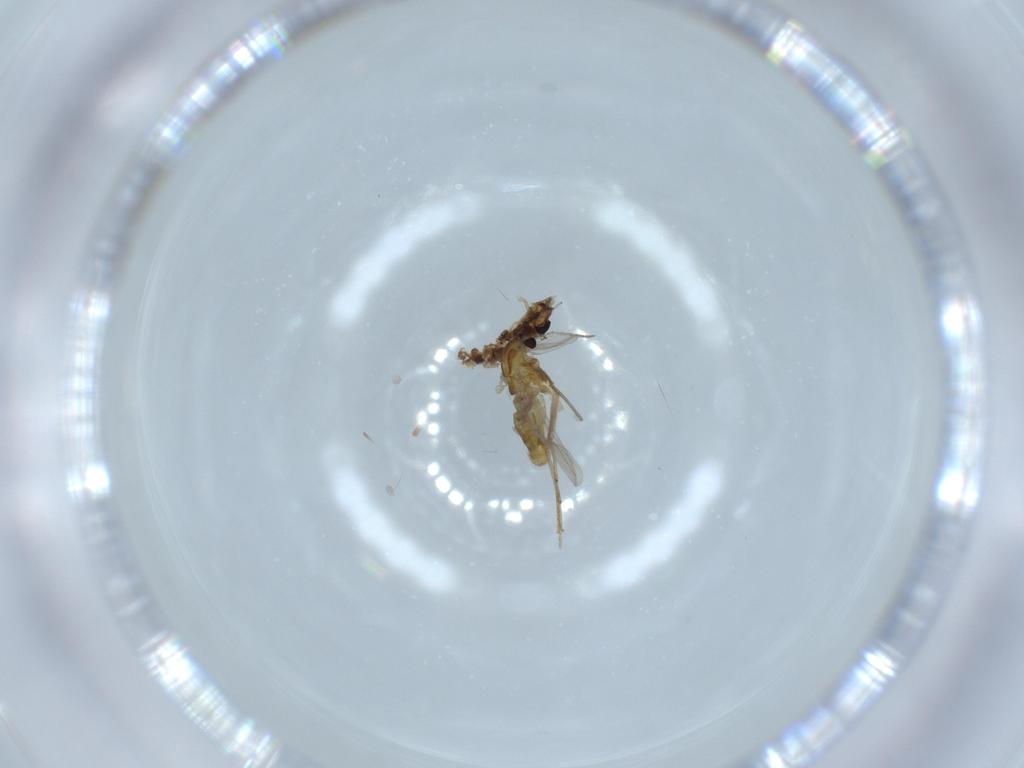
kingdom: Animalia
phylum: Arthropoda
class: Insecta
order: Diptera
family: Chironomidae
